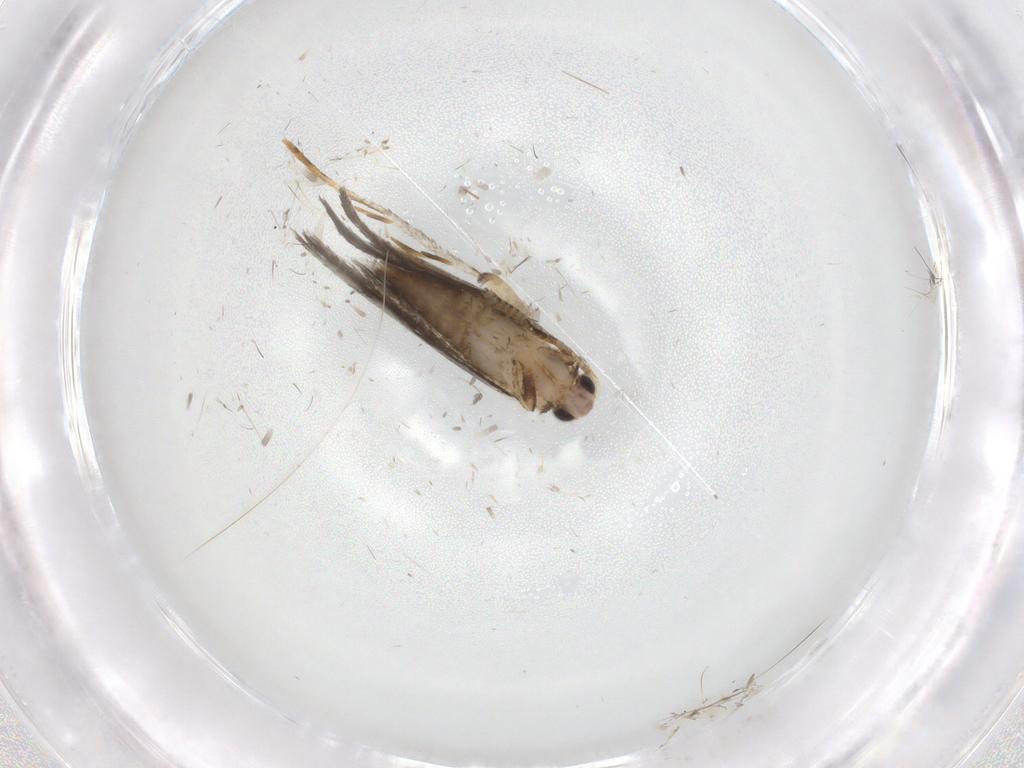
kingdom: Animalia
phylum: Arthropoda
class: Insecta
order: Lepidoptera
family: Tineidae
